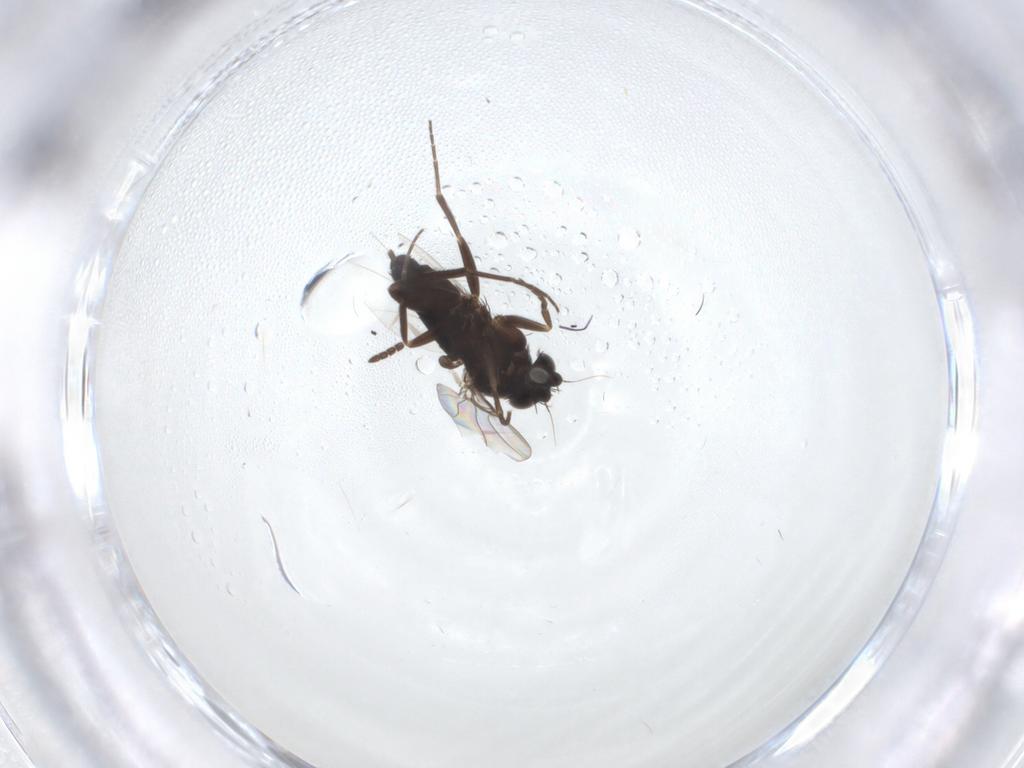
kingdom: Animalia
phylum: Arthropoda
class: Insecta
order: Diptera
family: Phoridae
